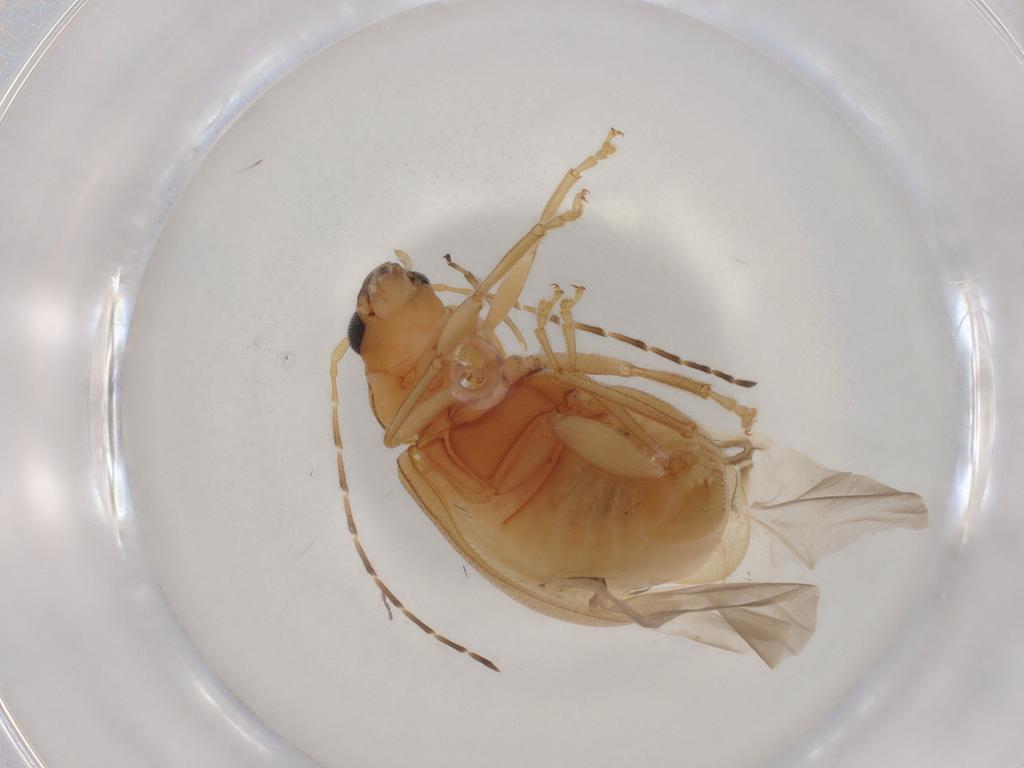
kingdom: Animalia
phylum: Arthropoda
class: Insecta
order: Coleoptera
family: Chrysomelidae
